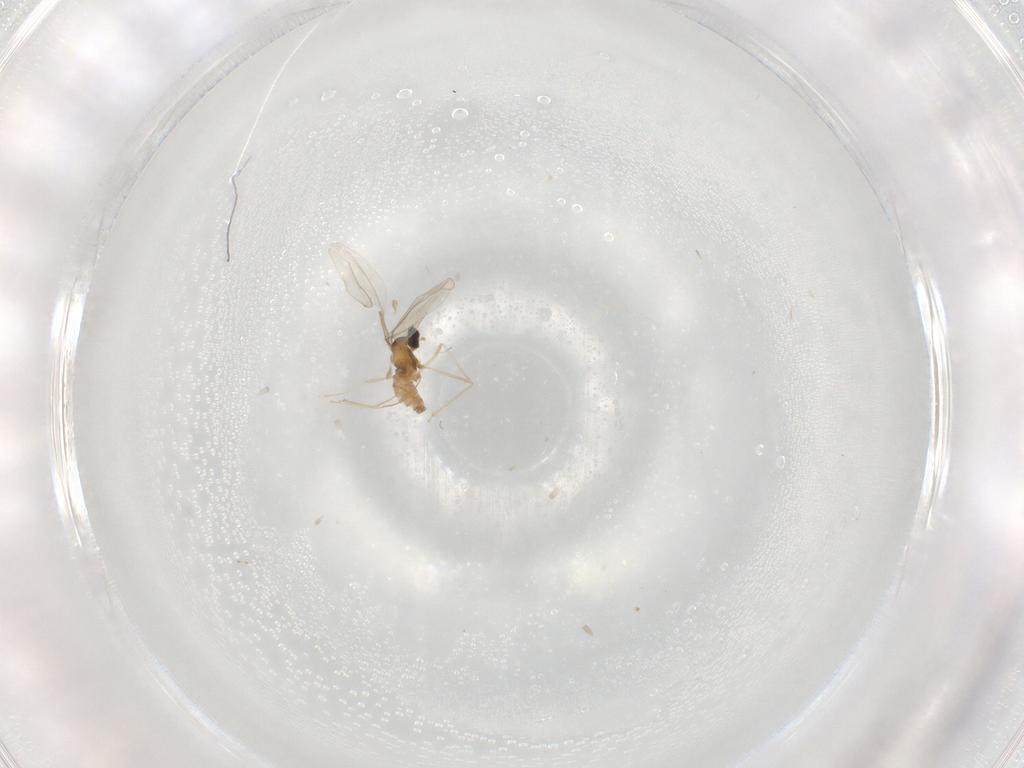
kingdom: Animalia
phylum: Arthropoda
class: Insecta
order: Diptera
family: Chironomidae
